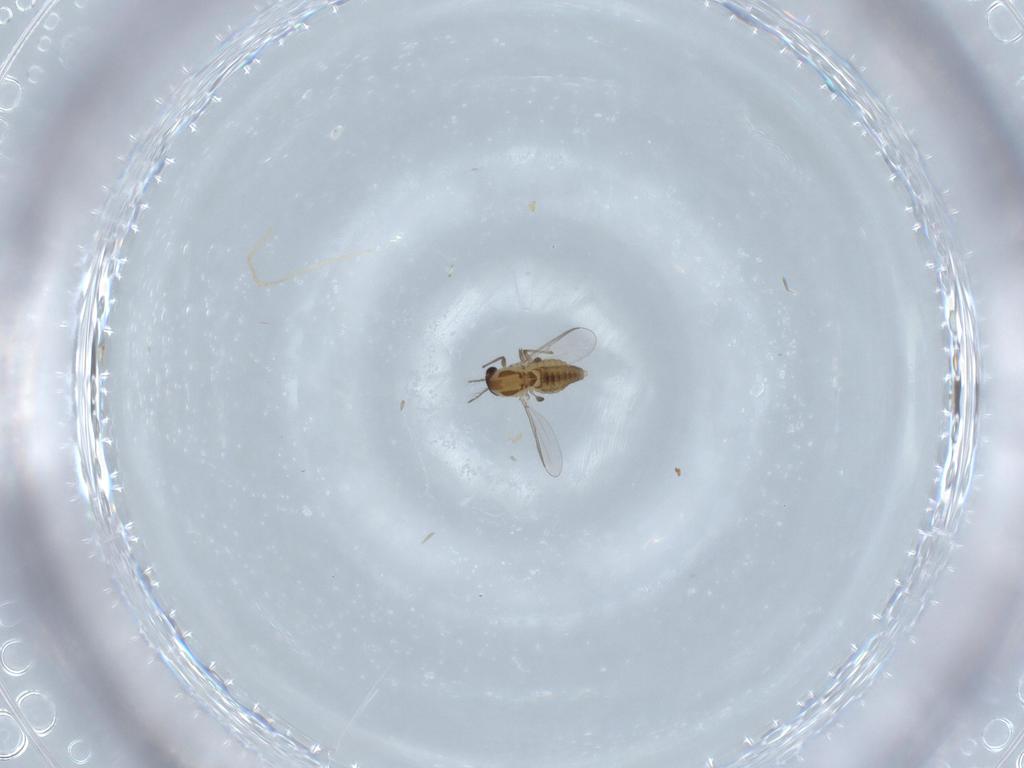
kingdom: Animalia
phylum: Arthropoda
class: Insecta
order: Diptera
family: Chironomidae
